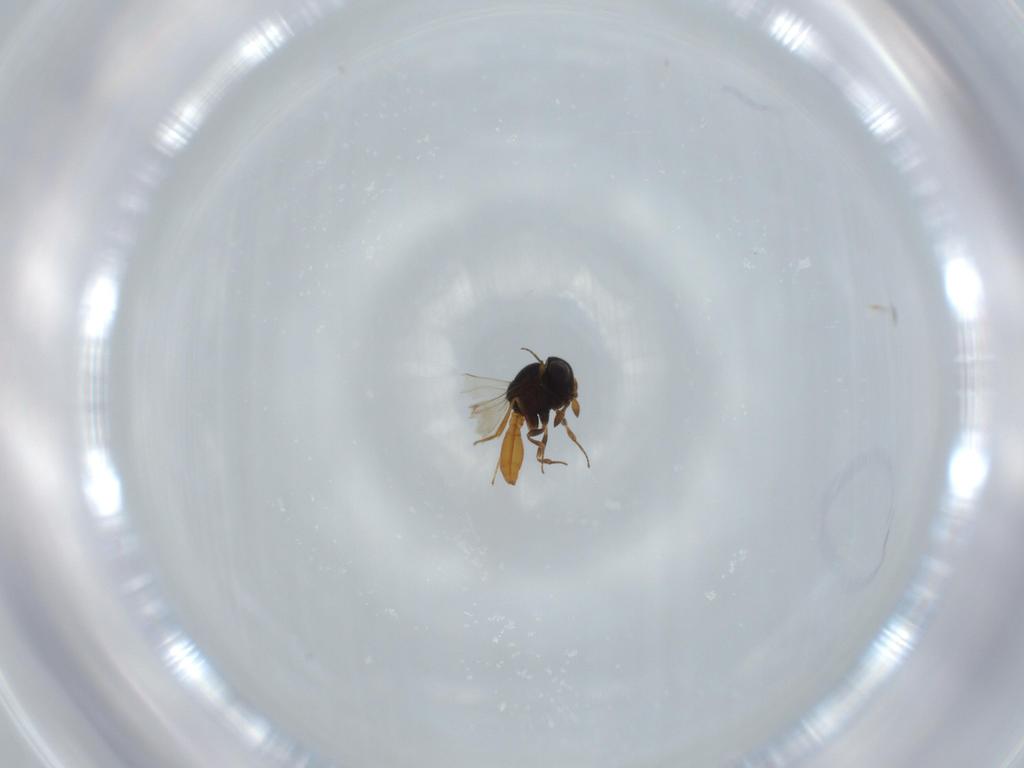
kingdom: Animalia
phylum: Arthropoda
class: Insecta
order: Hymenoptera
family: Scelionidae
